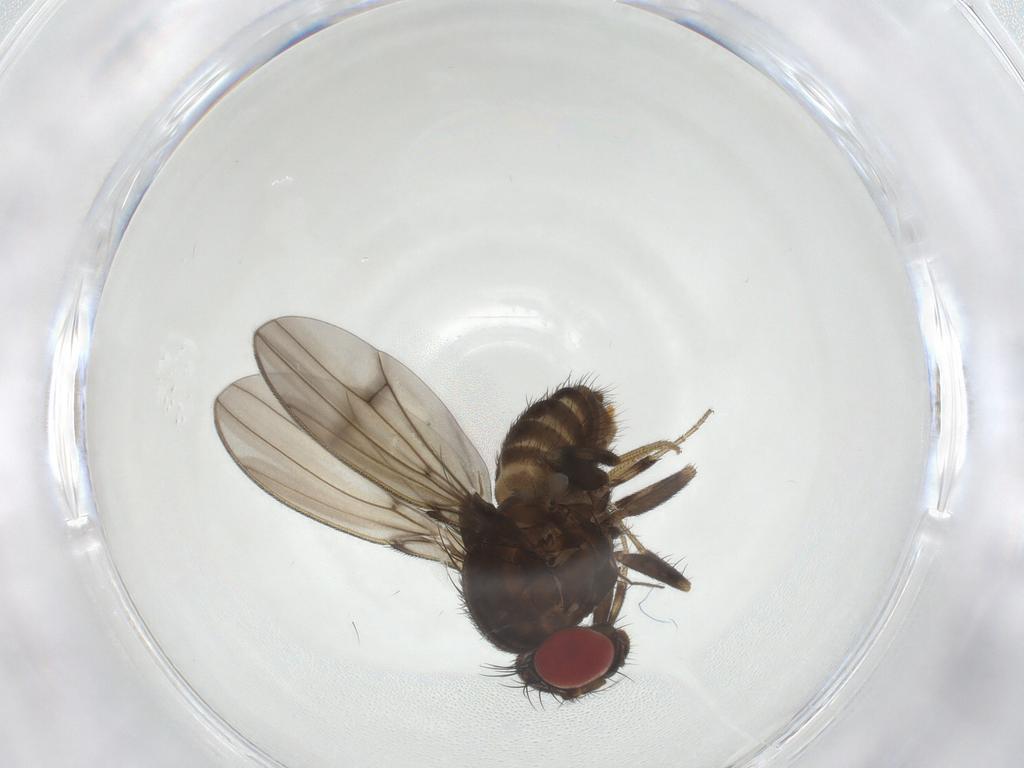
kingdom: Animalia
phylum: Arthropoda
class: Insecta
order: Diptera
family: Drosophilidae
